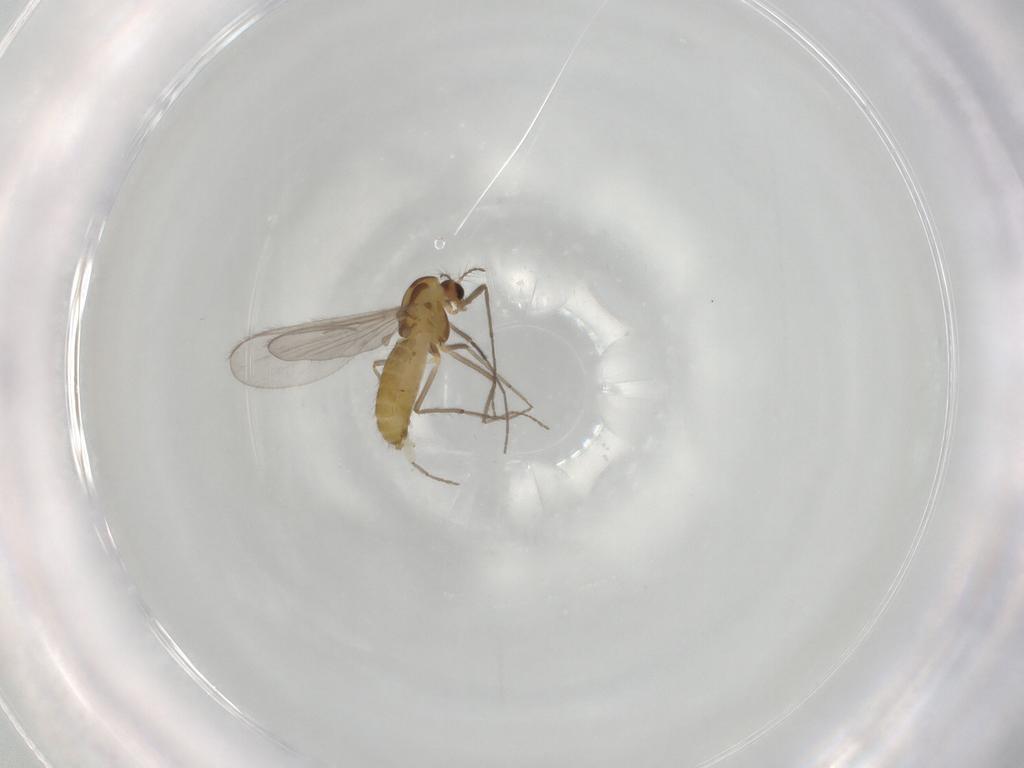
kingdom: Animalia
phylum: Arthropoda
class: Insecta
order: Diptera
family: Chironomidae
